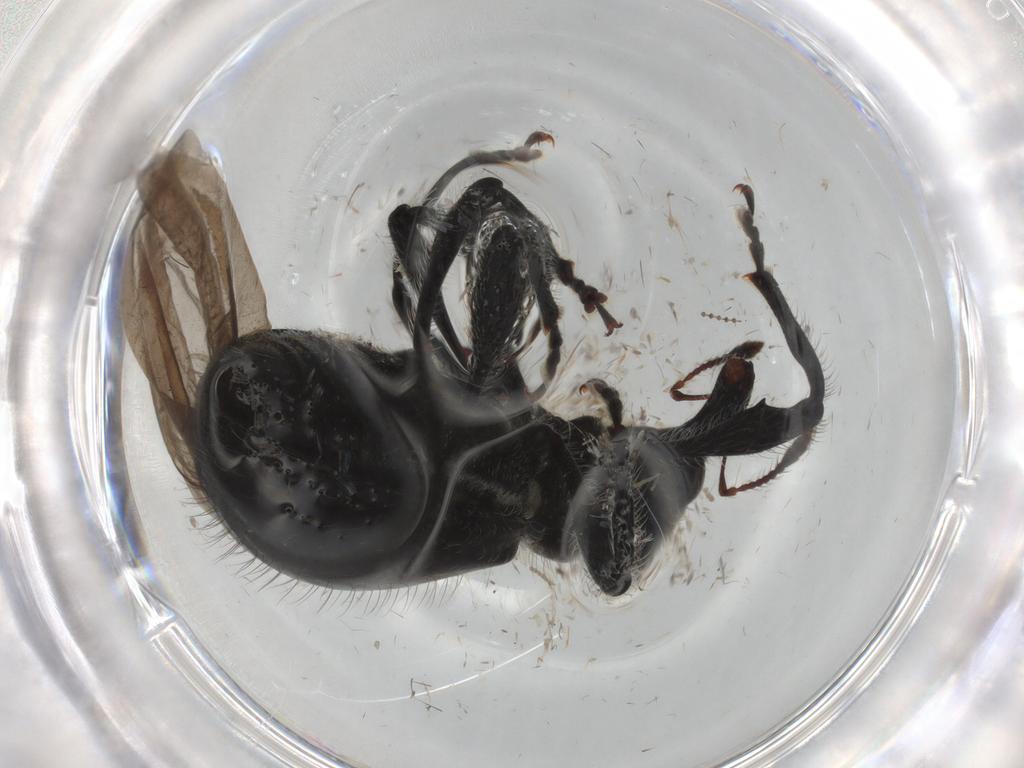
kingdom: Animalia
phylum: Arthropoda
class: Insecta
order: Coleoptera
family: Curculionidae
